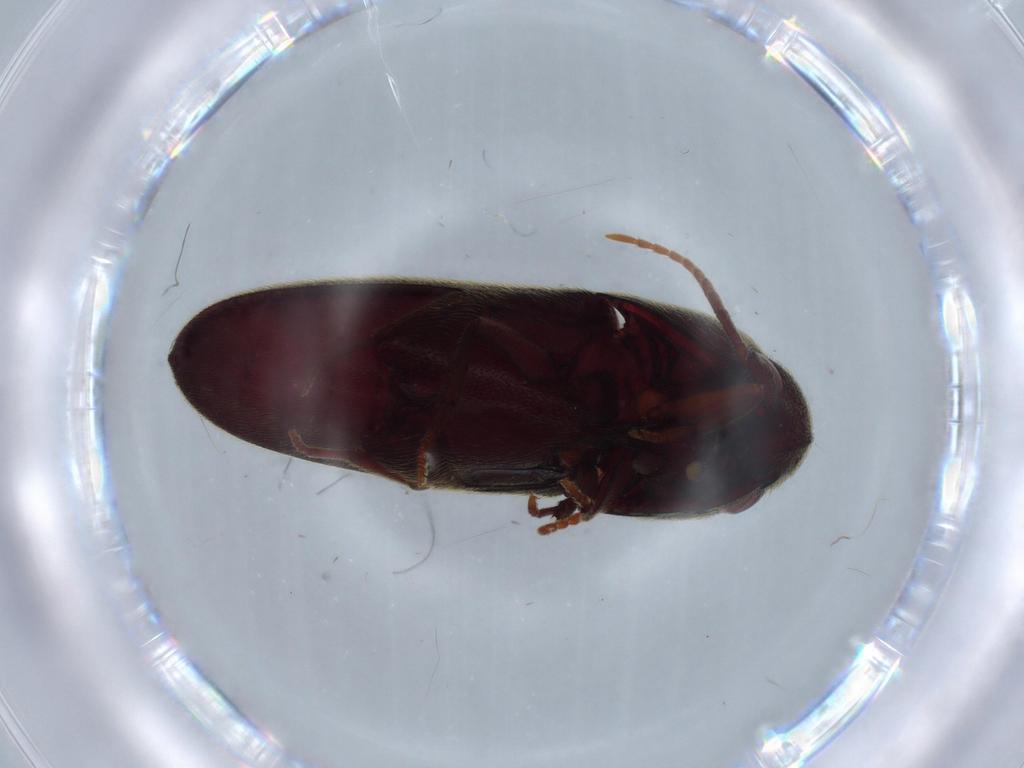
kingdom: Animalia
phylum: Arthropoda
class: Insecta
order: Coleoptera
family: Eucnemidae
